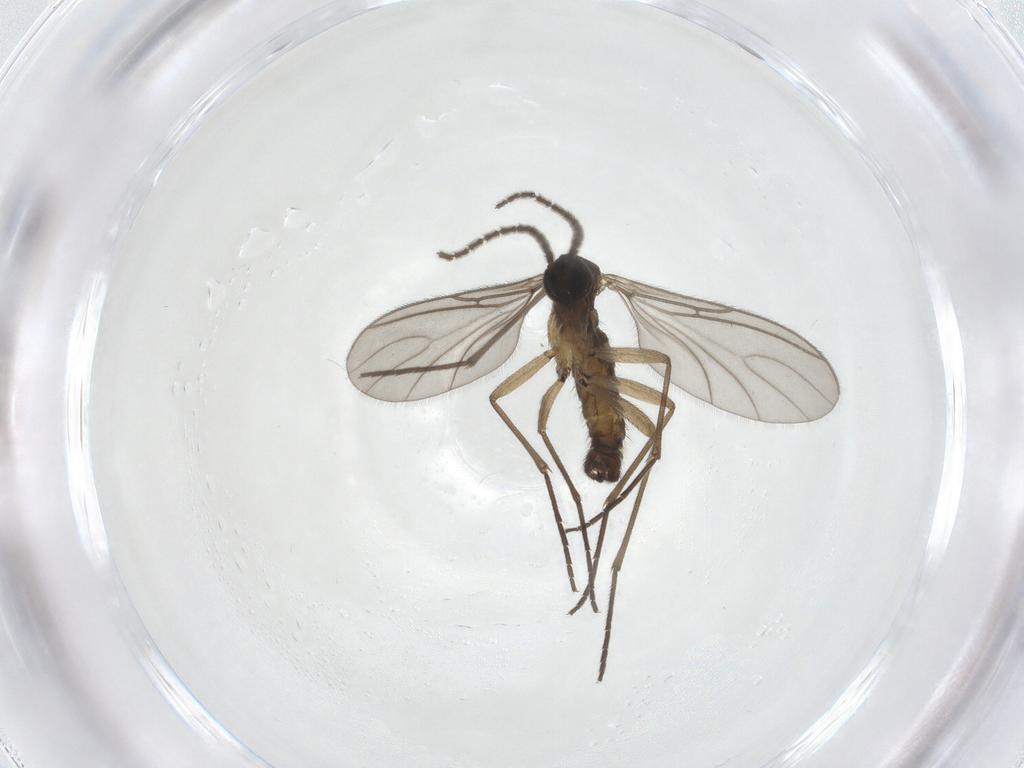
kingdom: Animalia
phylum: Arthropoda
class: Insecta
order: Diptera
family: Sciaridae
